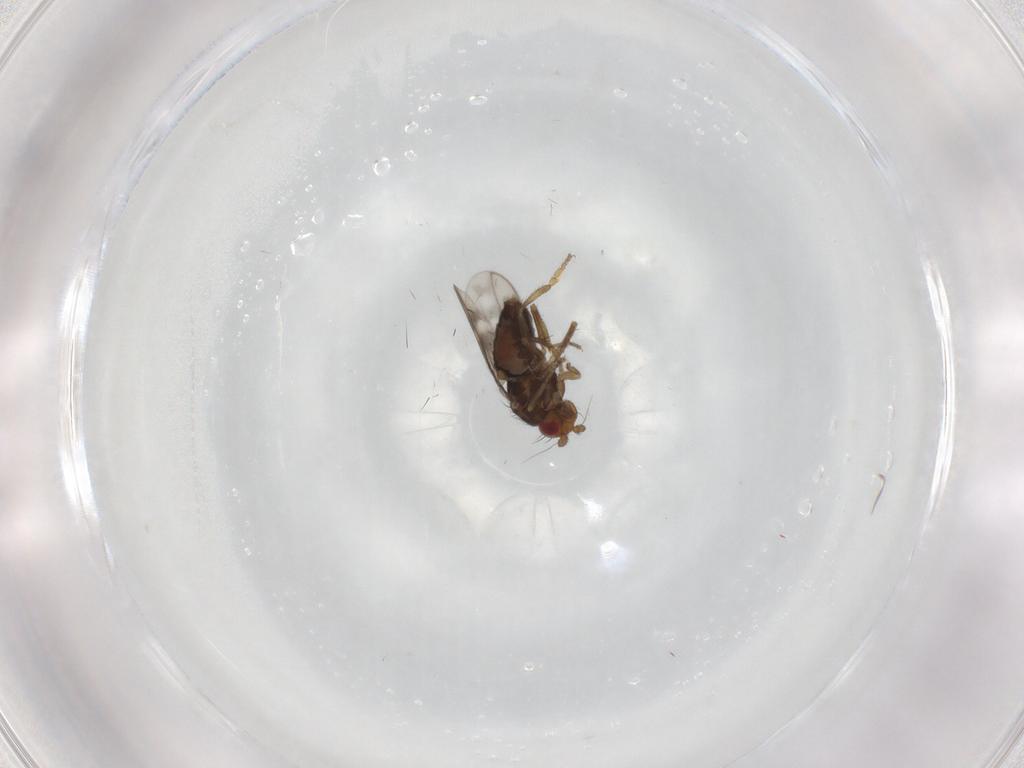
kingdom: Animalia
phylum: Arthropoda
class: Insecta
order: Diptera
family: Sphaeroceridae
